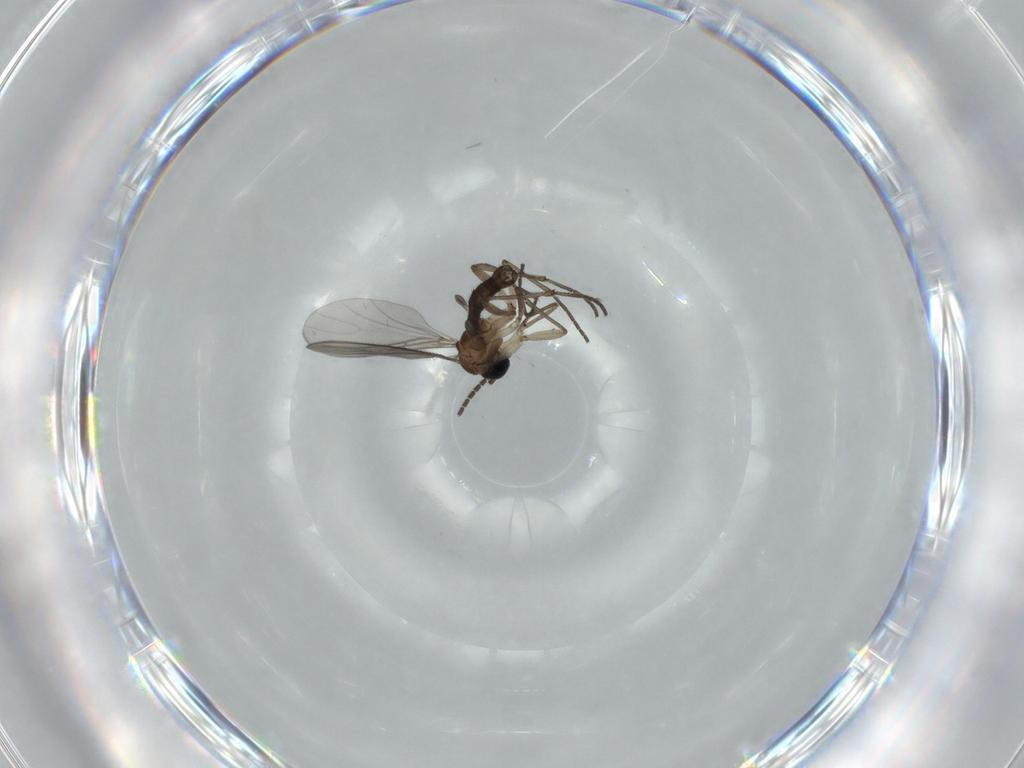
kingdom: Animalia
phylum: Arthropoda
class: Insecta
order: Diptera
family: Sciaridae
